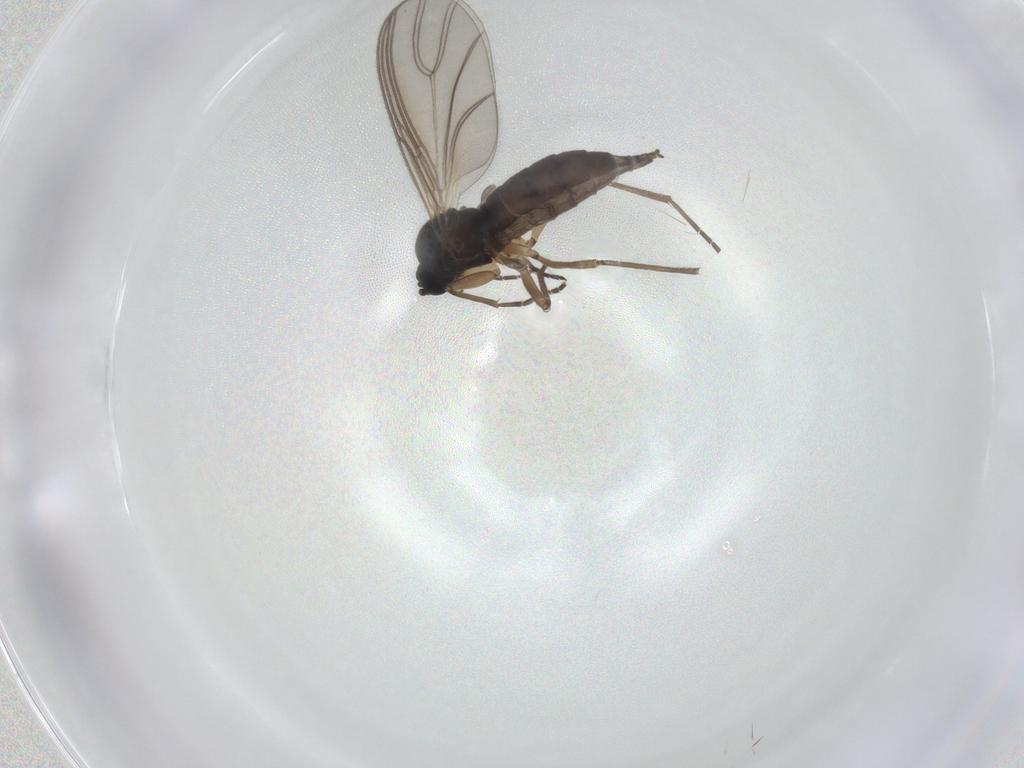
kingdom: Animalia
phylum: Arthropoda
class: Insecta
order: Diptera
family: Sciaridae
